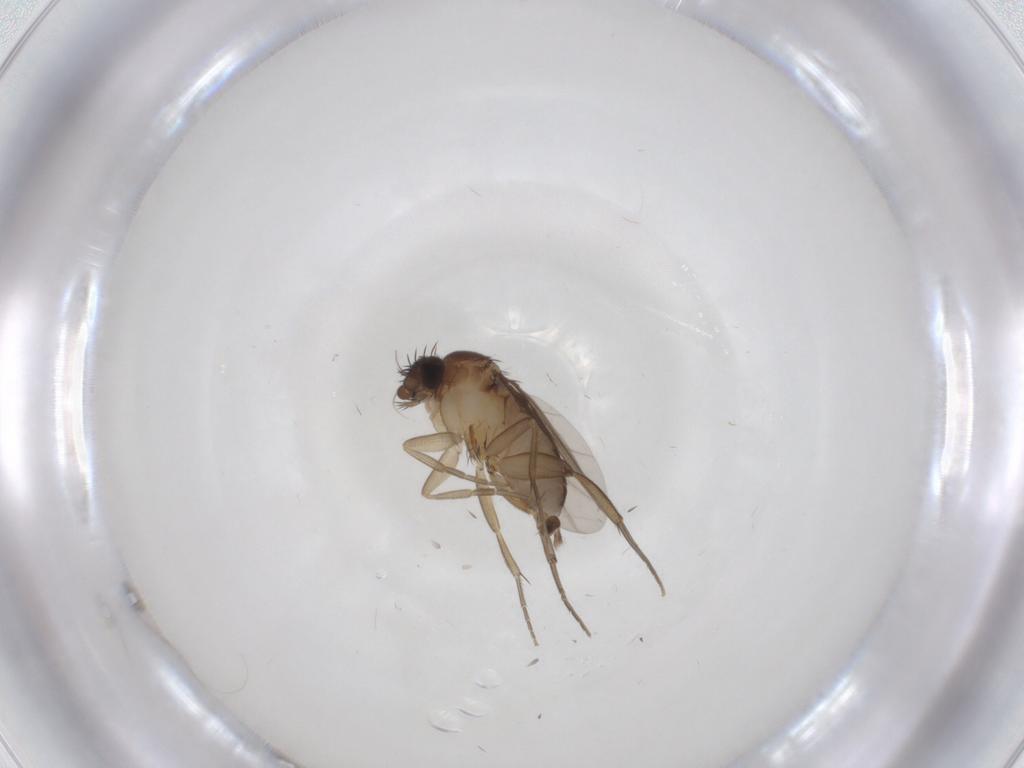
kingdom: Animalia
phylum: Arthropoda
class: Insecta
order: Diptera
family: Phoridae
